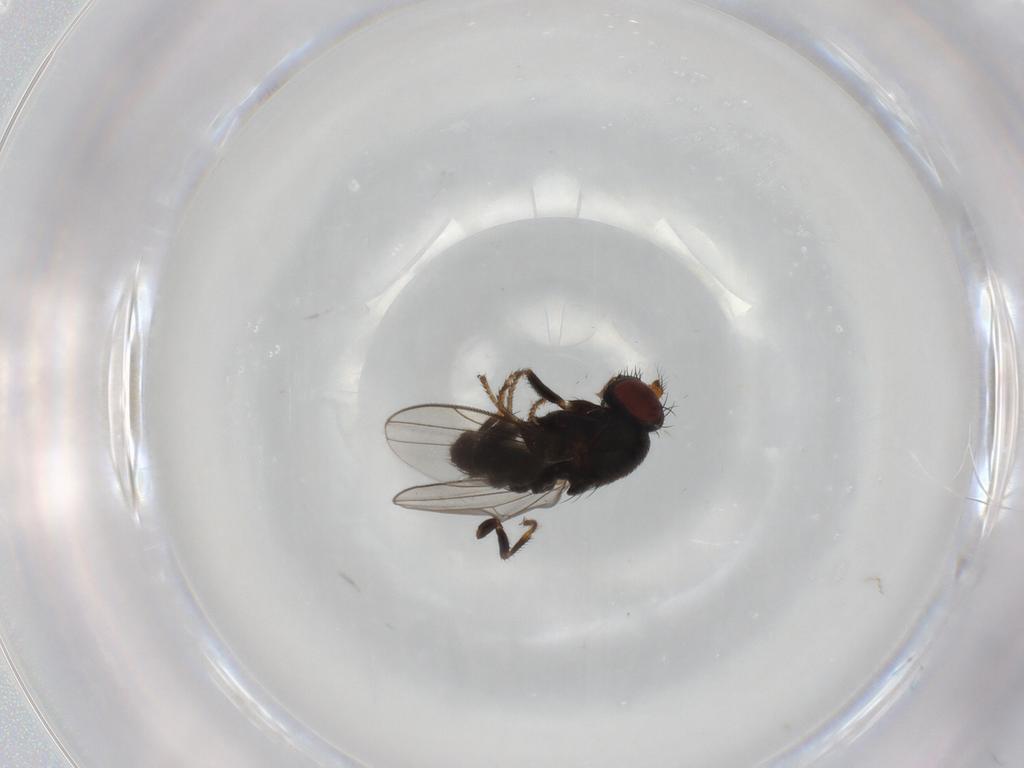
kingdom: Animalia
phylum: Arthropoda
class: Insecta
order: Diptera
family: Ephydridae
